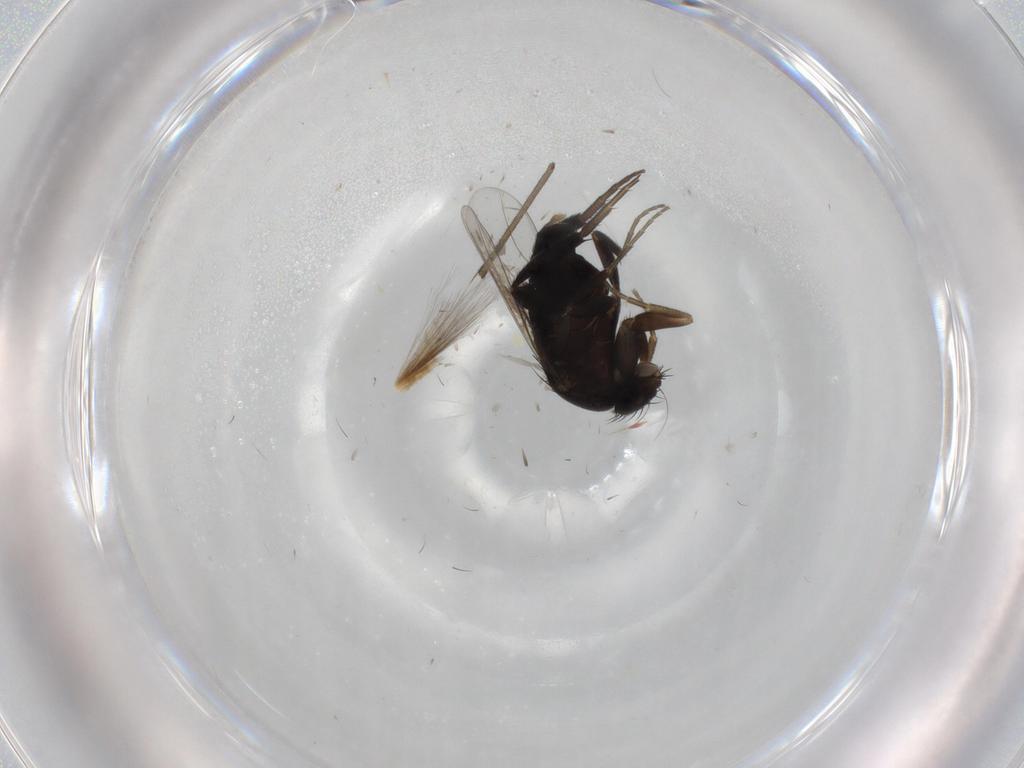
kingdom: Animalia
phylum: Arthropoda
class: Insecta
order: Diptera
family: Phoridae
